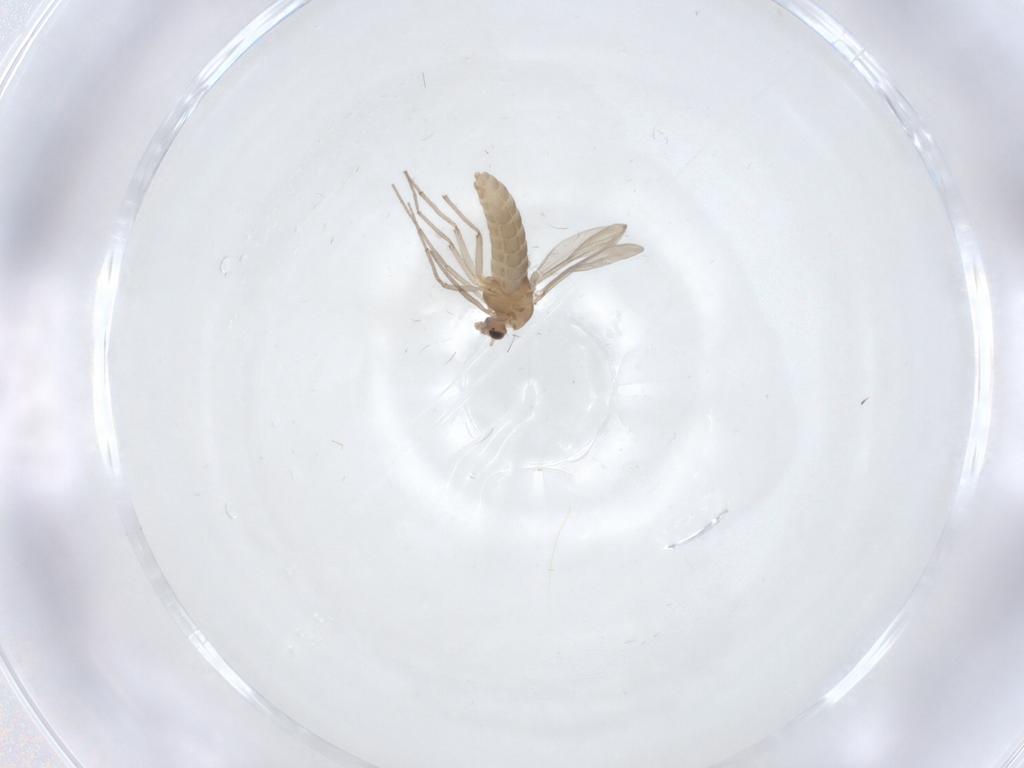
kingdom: Animalia
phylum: Arthropoda
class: Insecta
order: Diptera
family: Chironomidae
